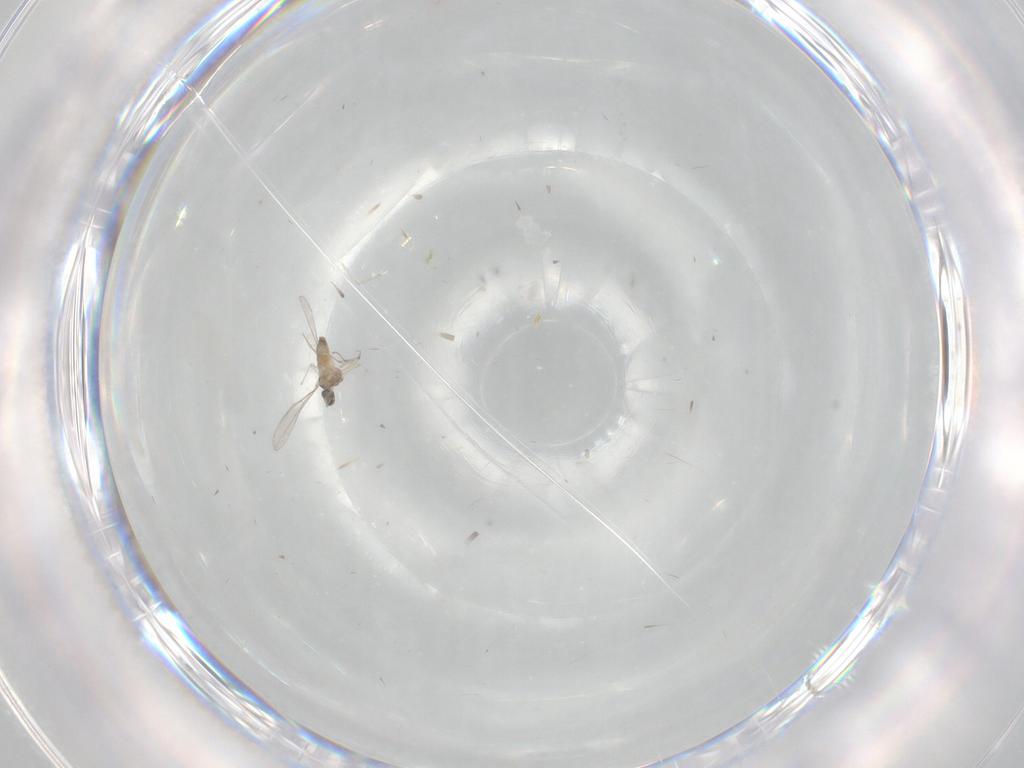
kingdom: Animalia
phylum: Arthropoda
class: Insecta
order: Diptera
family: Cecidomyiidae
